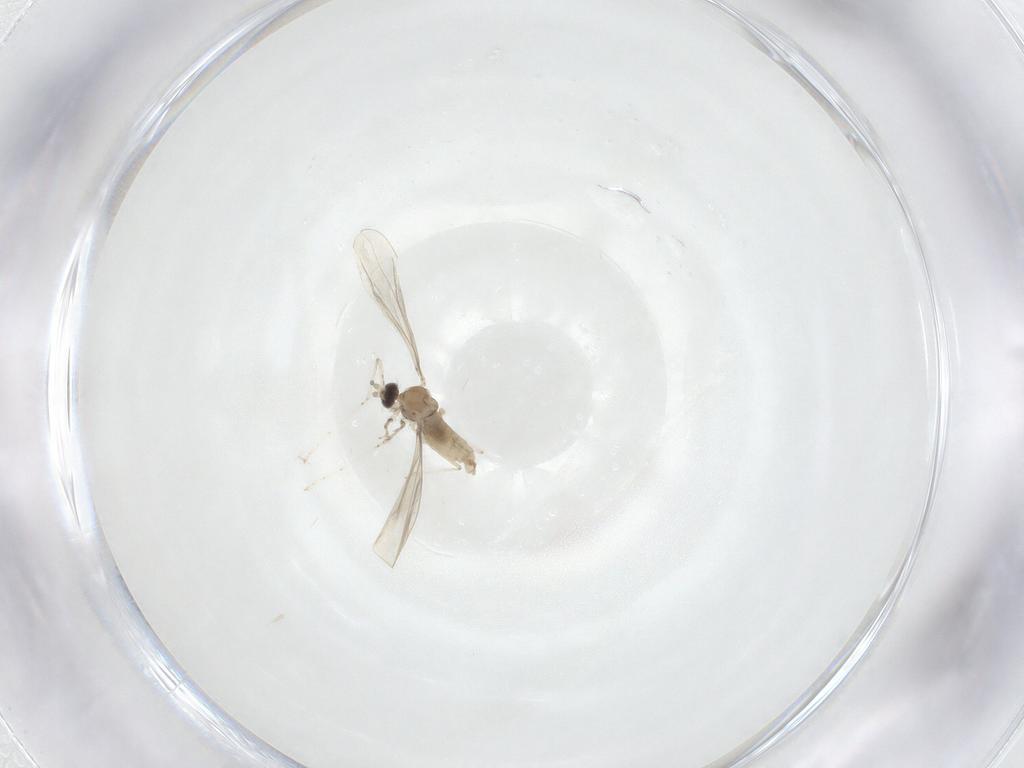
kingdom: Animalia
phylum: Arthropoda
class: Insecta
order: Diptera
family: Cecidomyiidae
